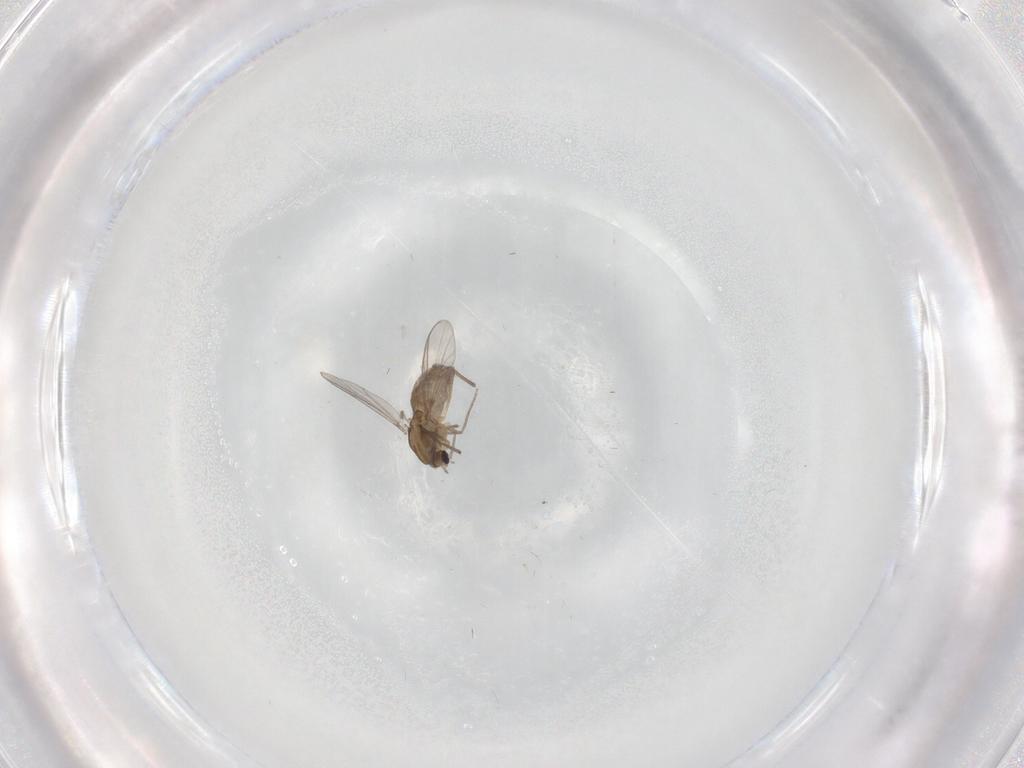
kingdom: Animalia
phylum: Arthropoda
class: Insecta
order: Diptera
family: Chironomidae
